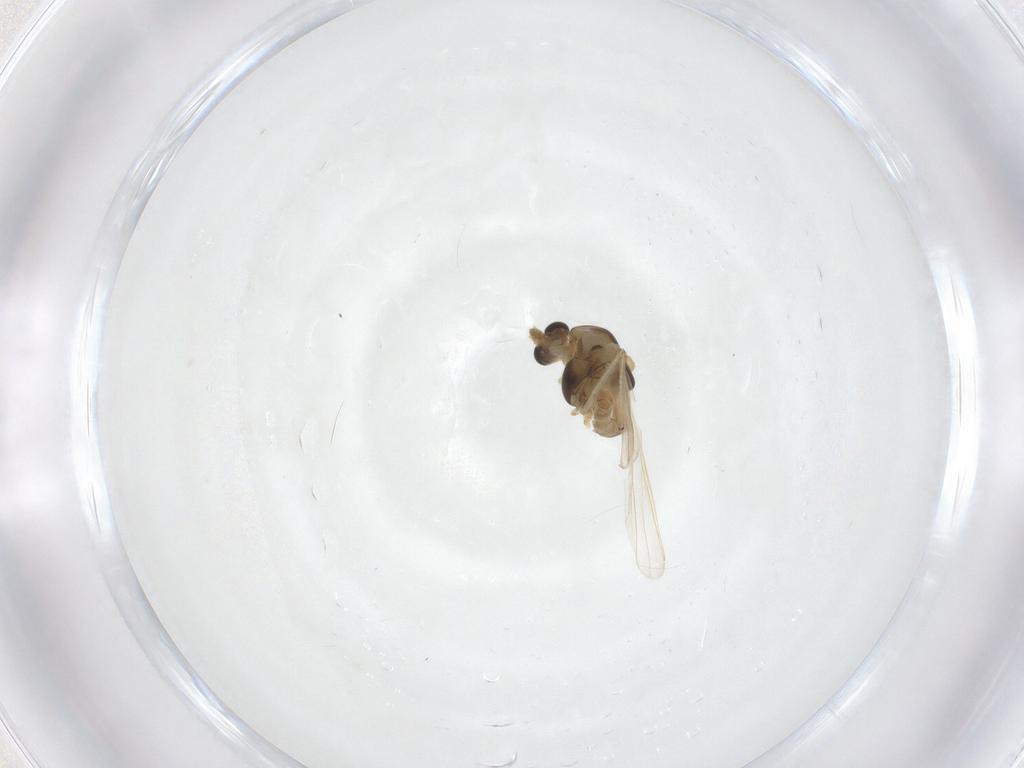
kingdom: Animalia
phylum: Arthropoda
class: Insecta
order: Diptera
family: Chironomidae
